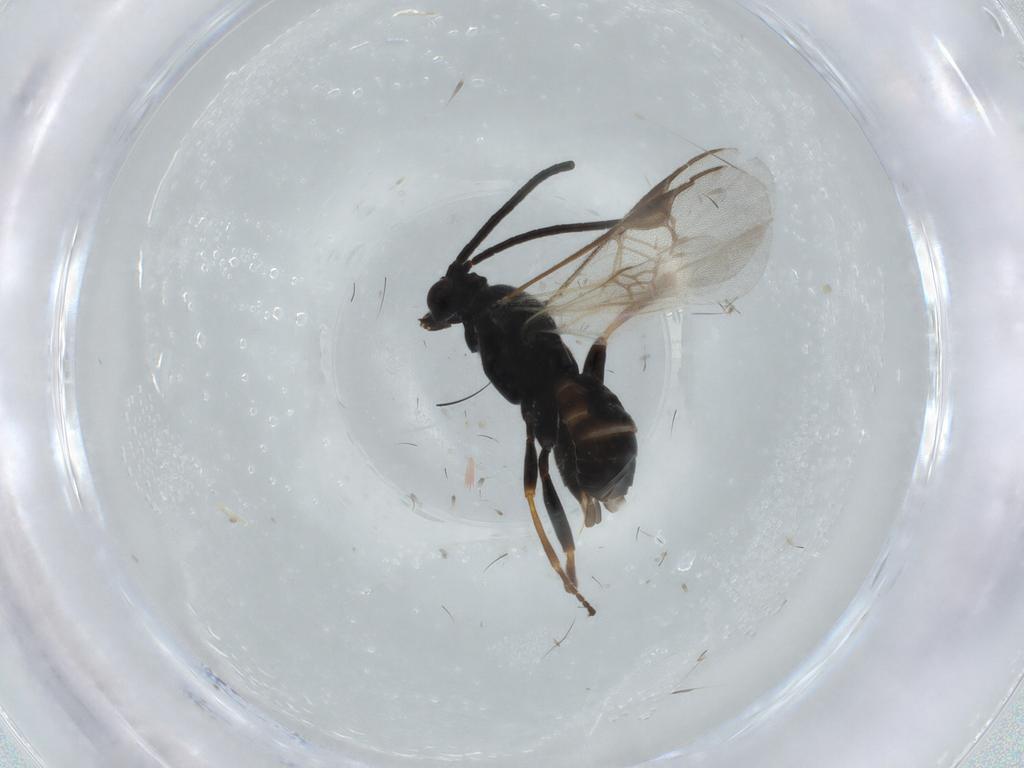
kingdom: Animalia
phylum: Arthropoda
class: Insecta
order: Hymenoptera
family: Braconidae
